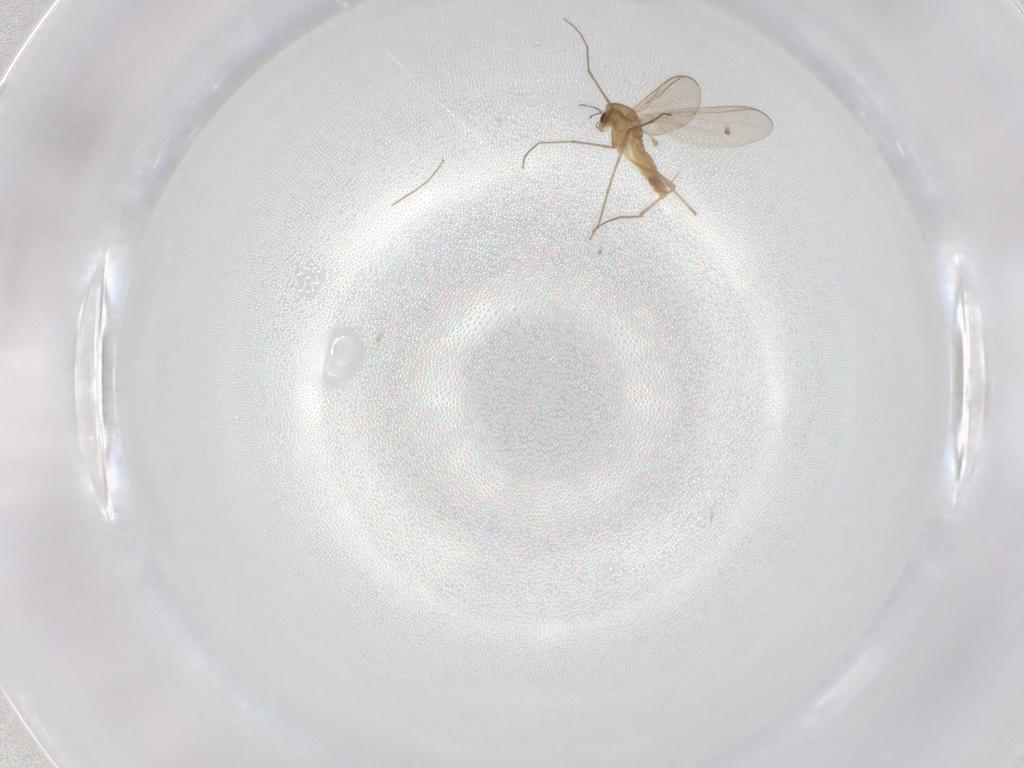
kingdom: Animalia
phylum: Arthropoda
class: Insecta
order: Diptera
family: Chironomidae
